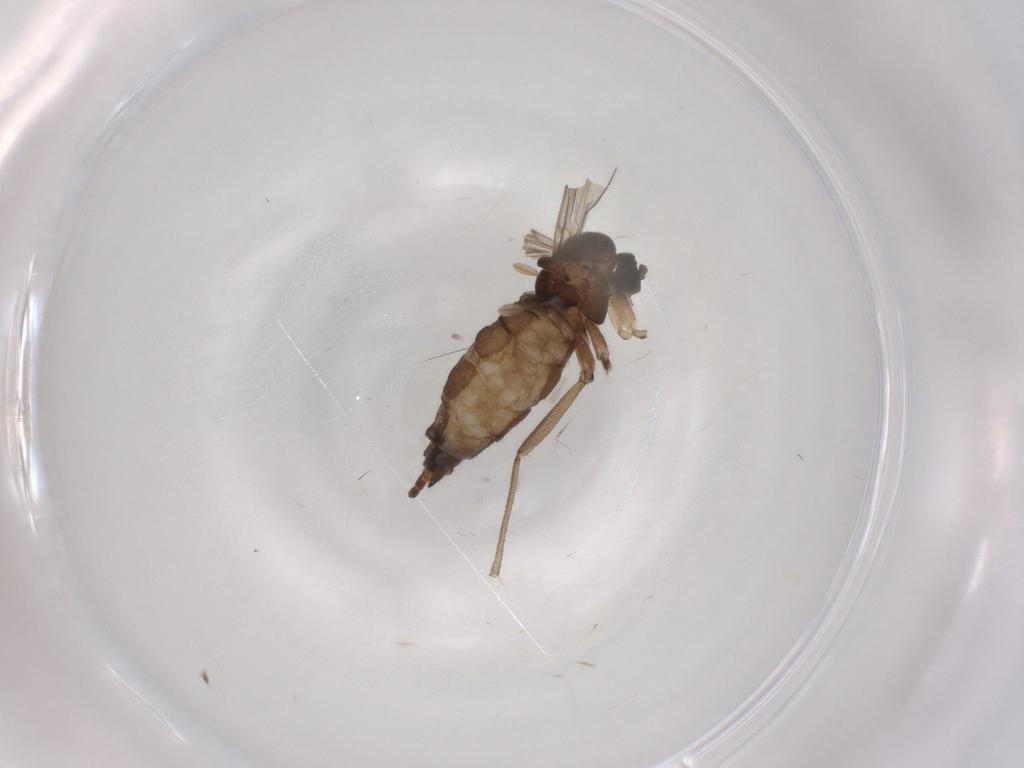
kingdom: Animalia
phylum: Arthropoda
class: Insecta
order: Diptera
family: Sciaridae
